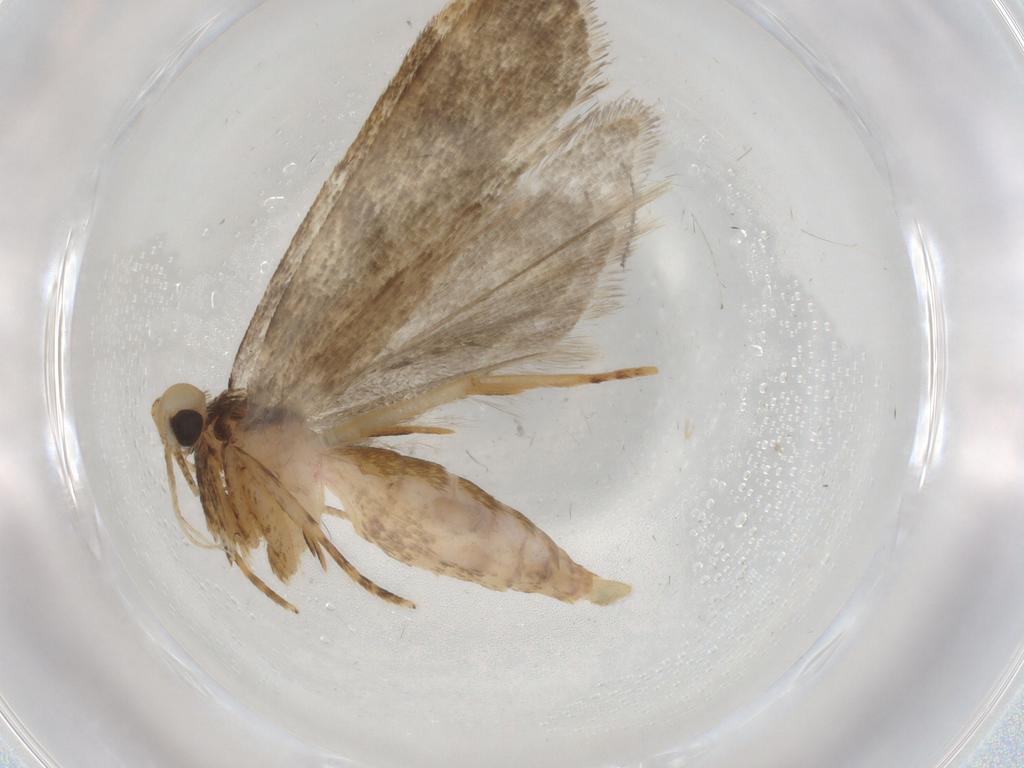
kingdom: Animalia
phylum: Arthropoda
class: Insecta
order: Lepidoptera
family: Autostichidae
